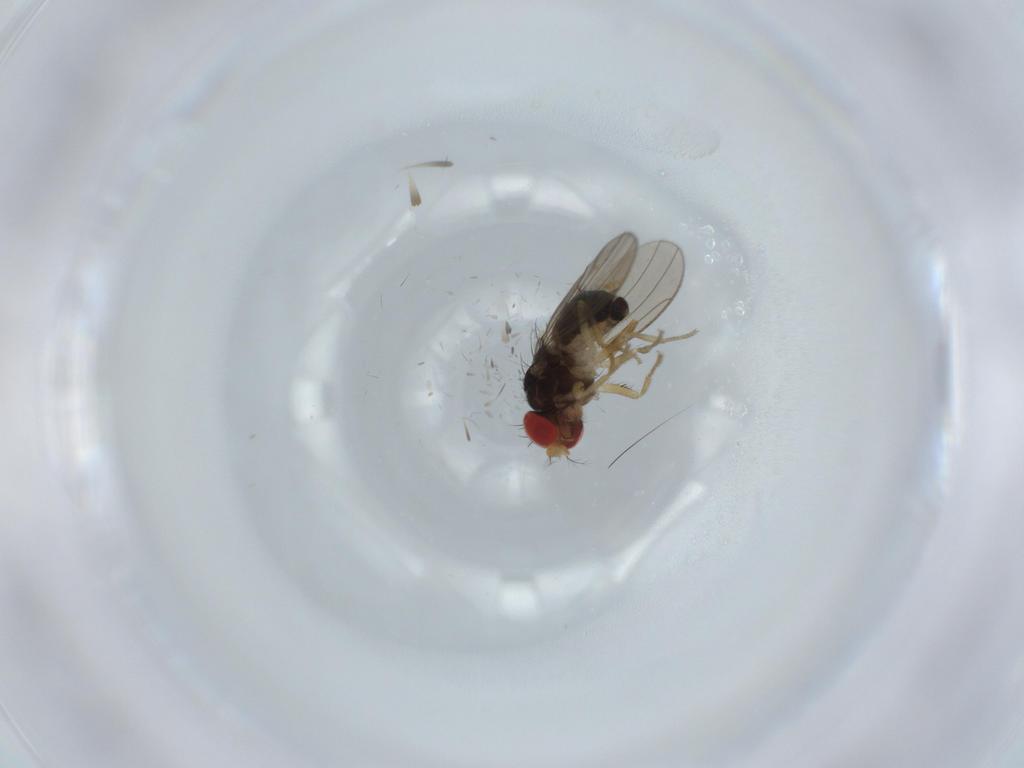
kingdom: Animalia
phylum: Arthropoda
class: Insecta
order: Diptera
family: Drosophilidae
